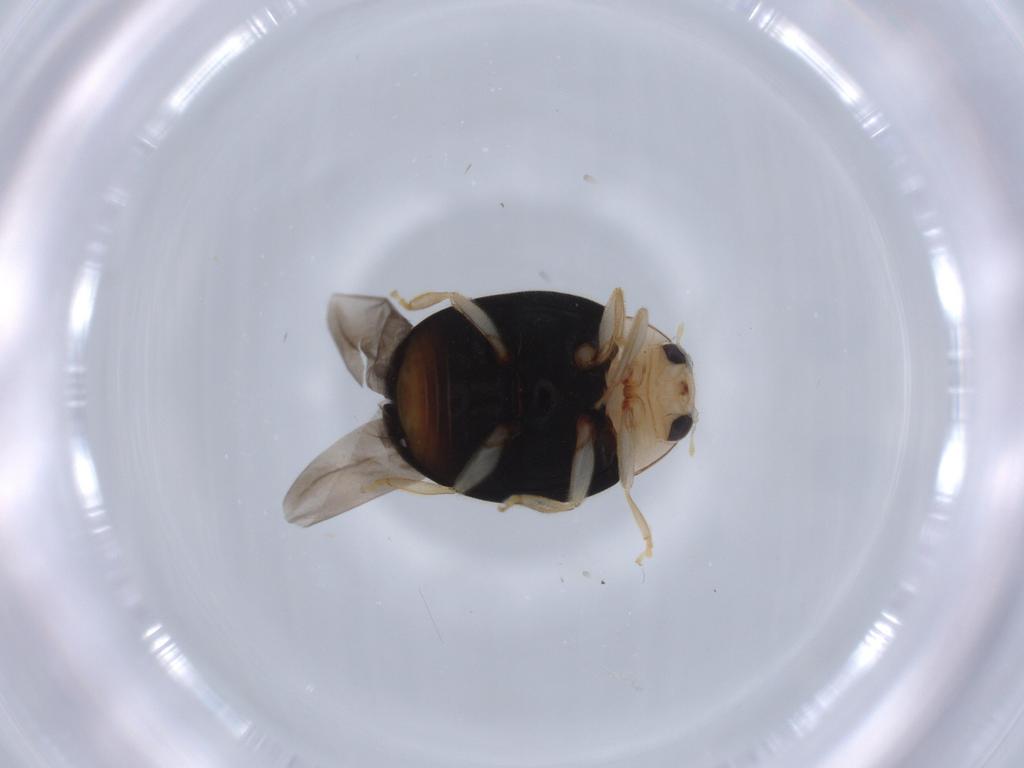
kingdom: Animalia
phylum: Arthropoda
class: Insecta
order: Coleoptera
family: Coccinellidae
